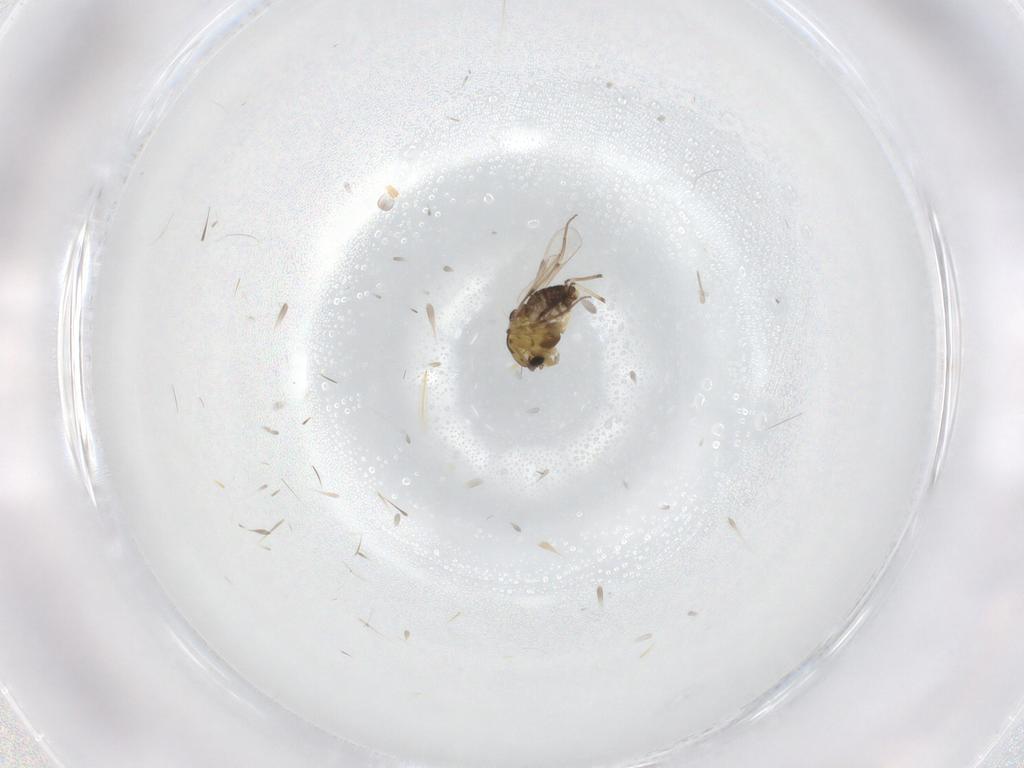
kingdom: Animalia
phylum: Arthropoda
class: Insecta
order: Diptera
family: Chironomidae
